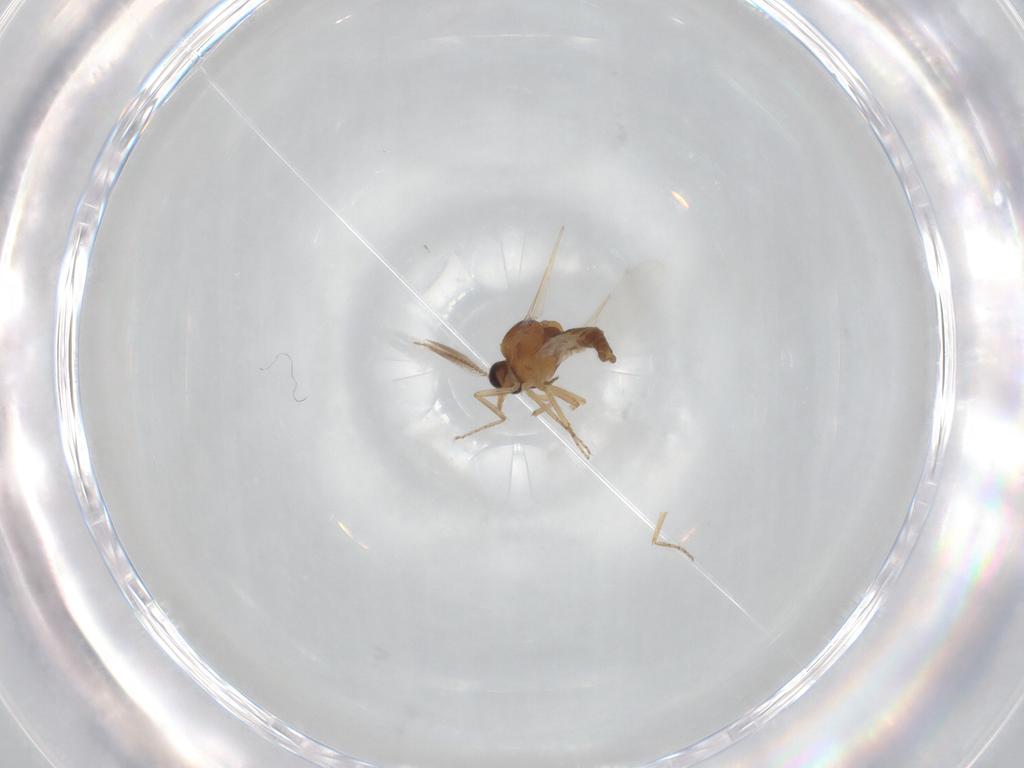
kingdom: Animalia
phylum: Arthropoda
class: Insecta
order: Diptera
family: Ceratopogonidae
